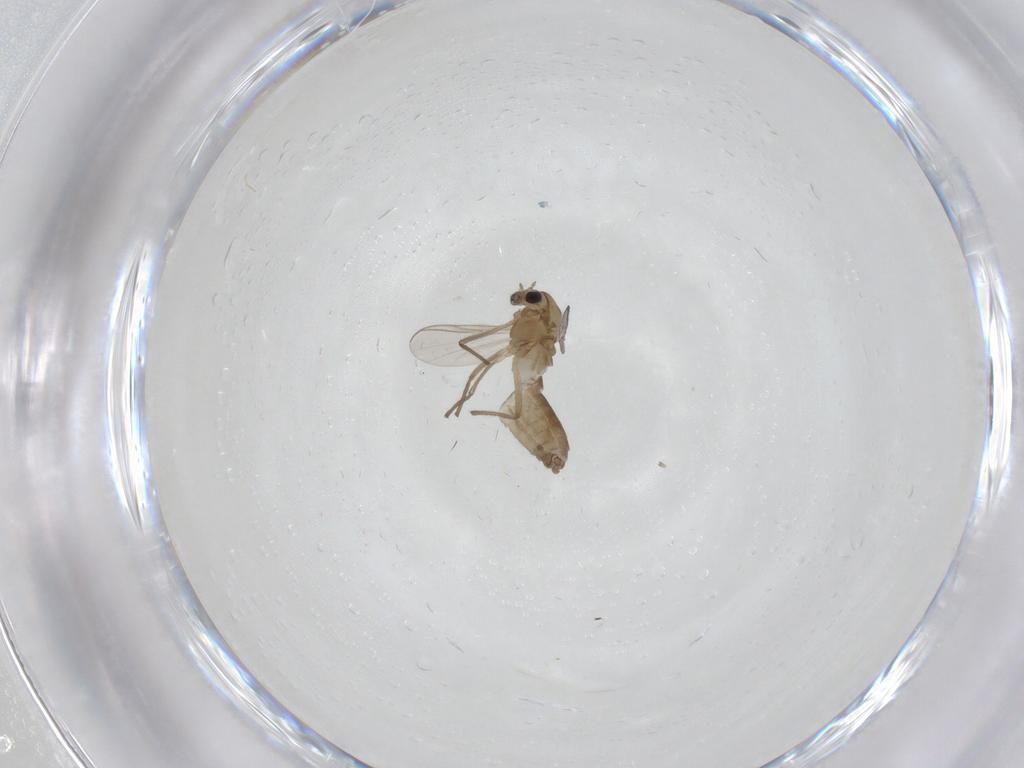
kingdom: Animalia
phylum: Arthropoda
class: Insecta
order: Diptera
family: Chironomidae
